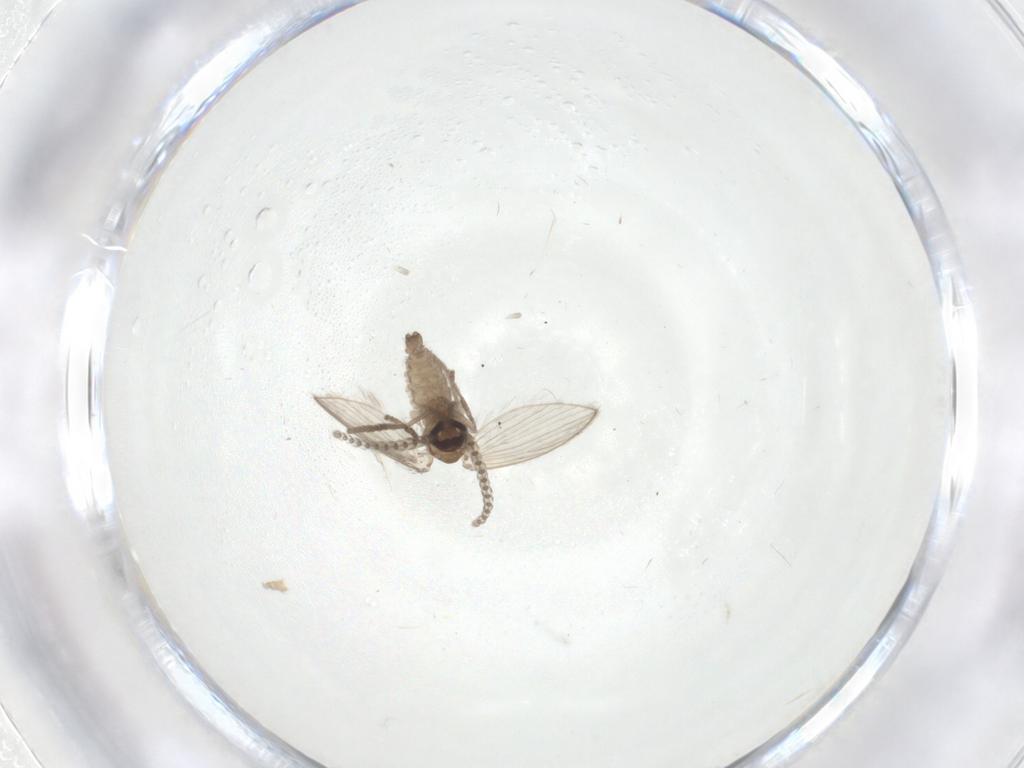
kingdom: Animalia
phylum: Arthropoda
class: Insecta
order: Diptera
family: Psychodidae
